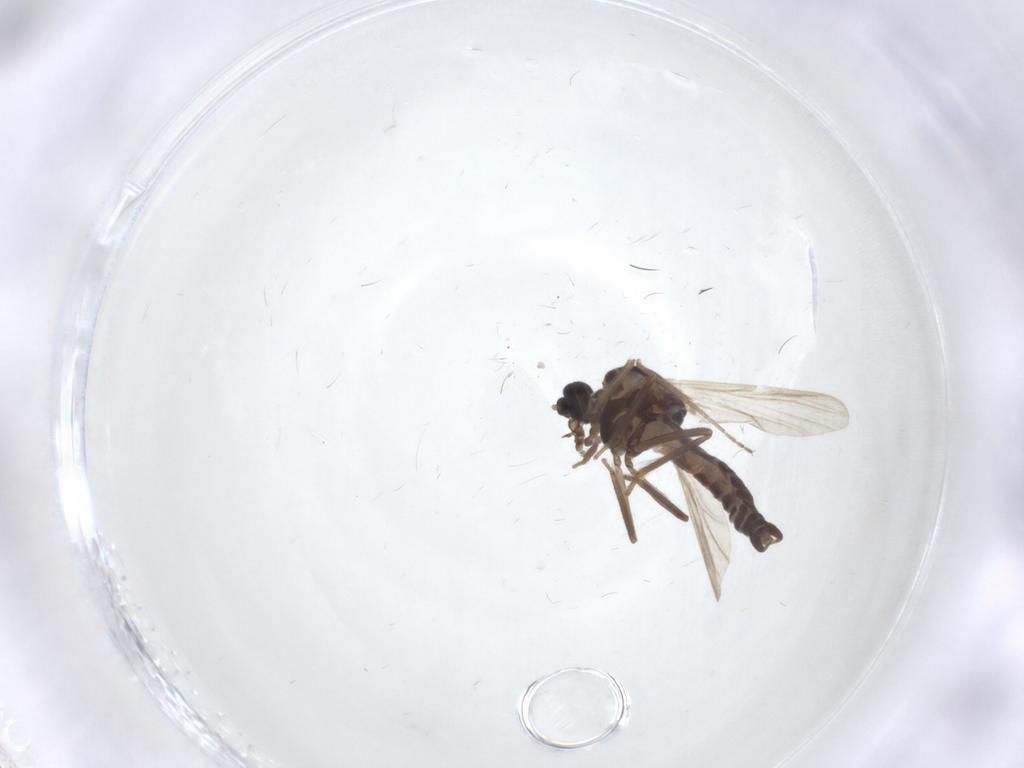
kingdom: Animalia
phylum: Arthropoda
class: Insecta
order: Diptera
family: Ceratopogonidae
